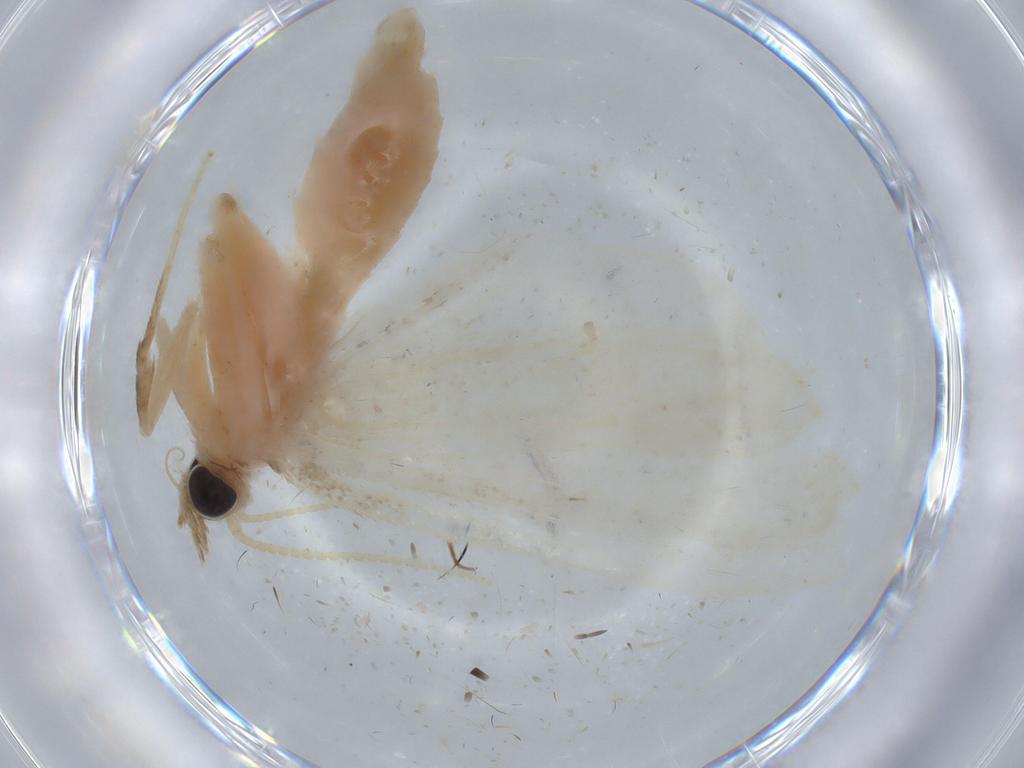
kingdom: Animalia
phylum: Arthropoda
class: Insecta
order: Lepidoptera
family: Crambidae
